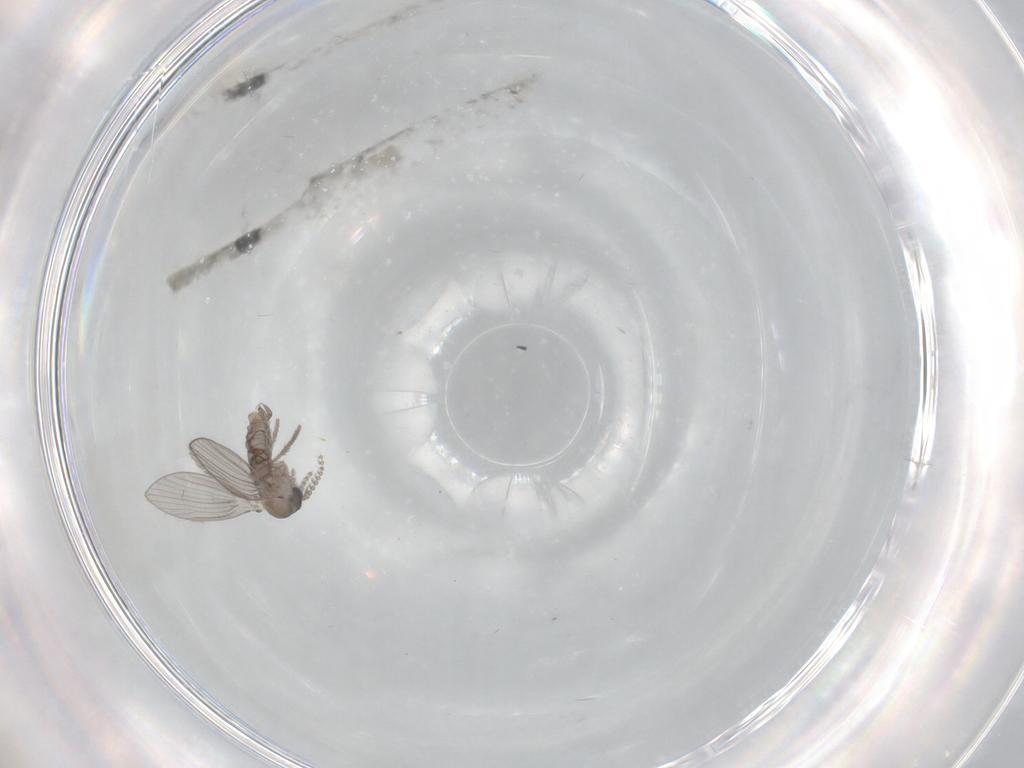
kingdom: Animalia
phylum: Arthropoda
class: Insecta
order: Diptera
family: Psychodidae
